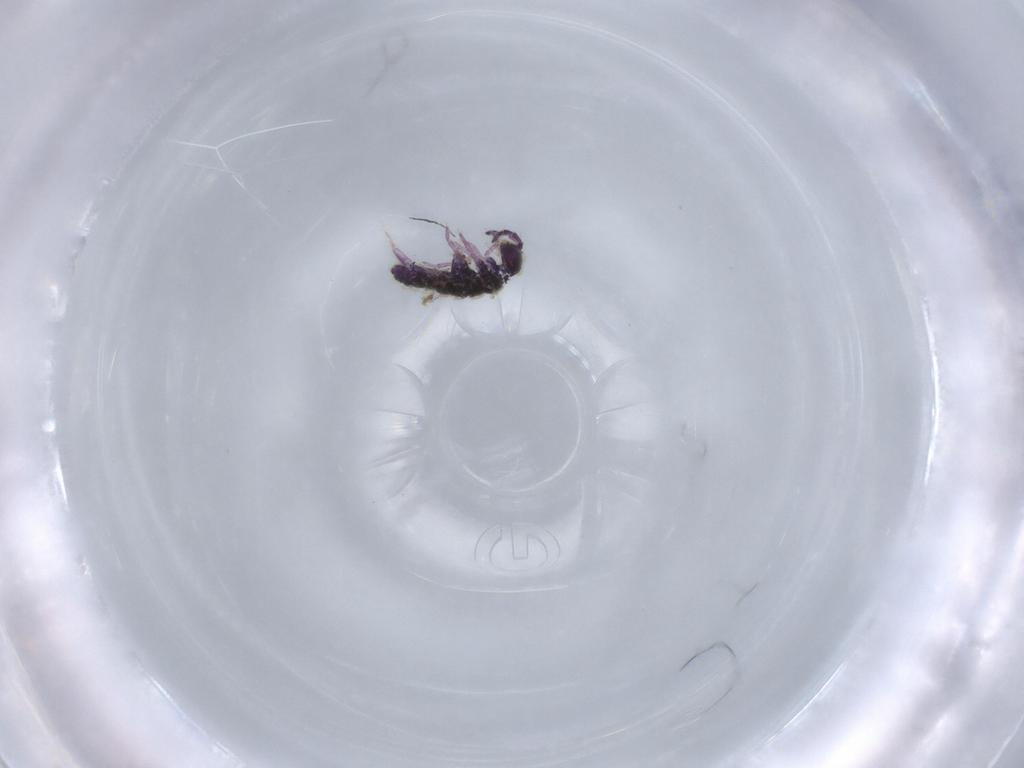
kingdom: Animalia
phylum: Arthropoda
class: Collembola
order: Entomobryomorpha
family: Isotomidae
